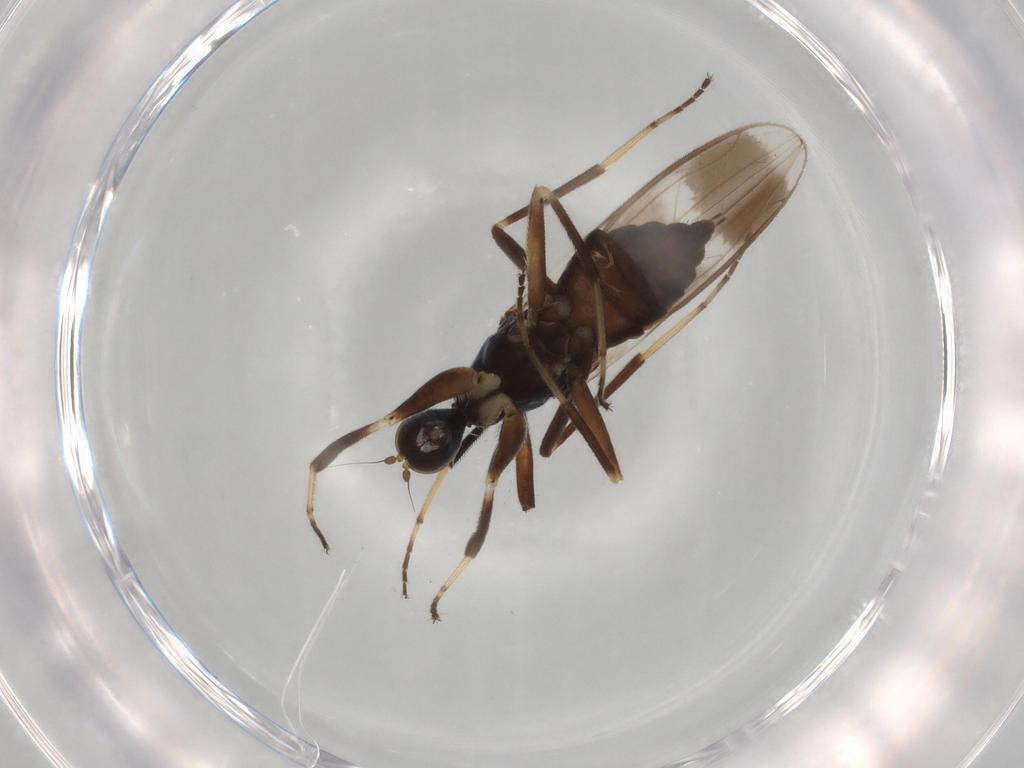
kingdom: Animalia
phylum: Arthropoda
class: Insecta
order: Diptera
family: Hybotidae
